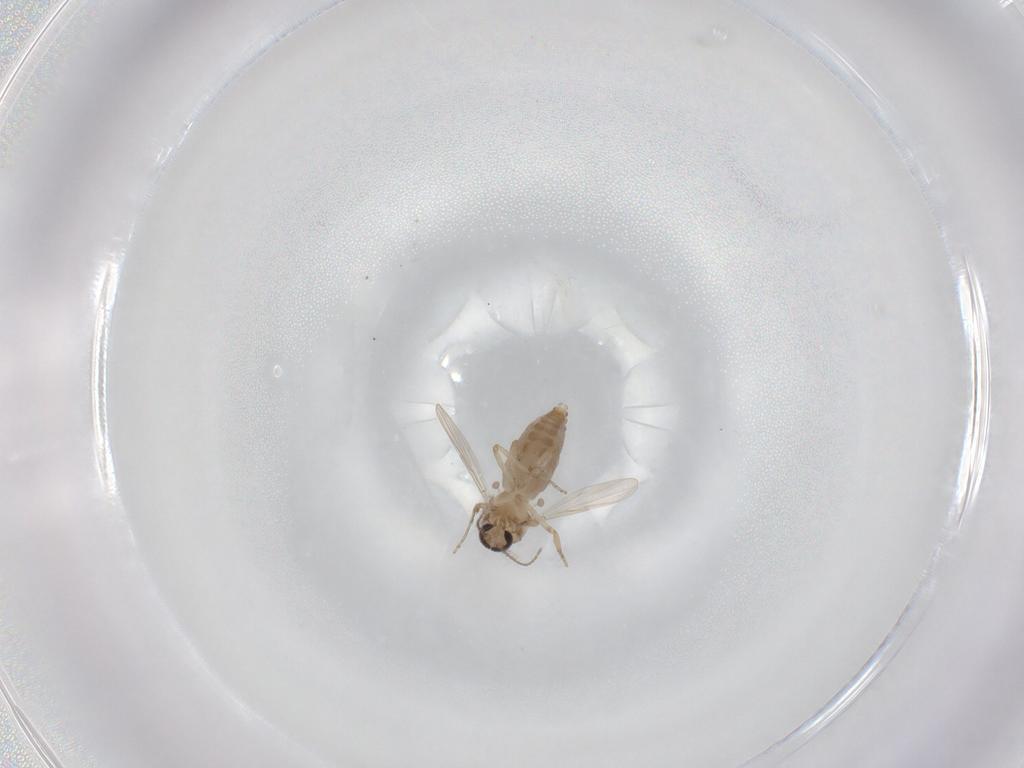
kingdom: Animalia
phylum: Arthropoda
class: Insecta
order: Diptera
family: Ceratopogonidae
